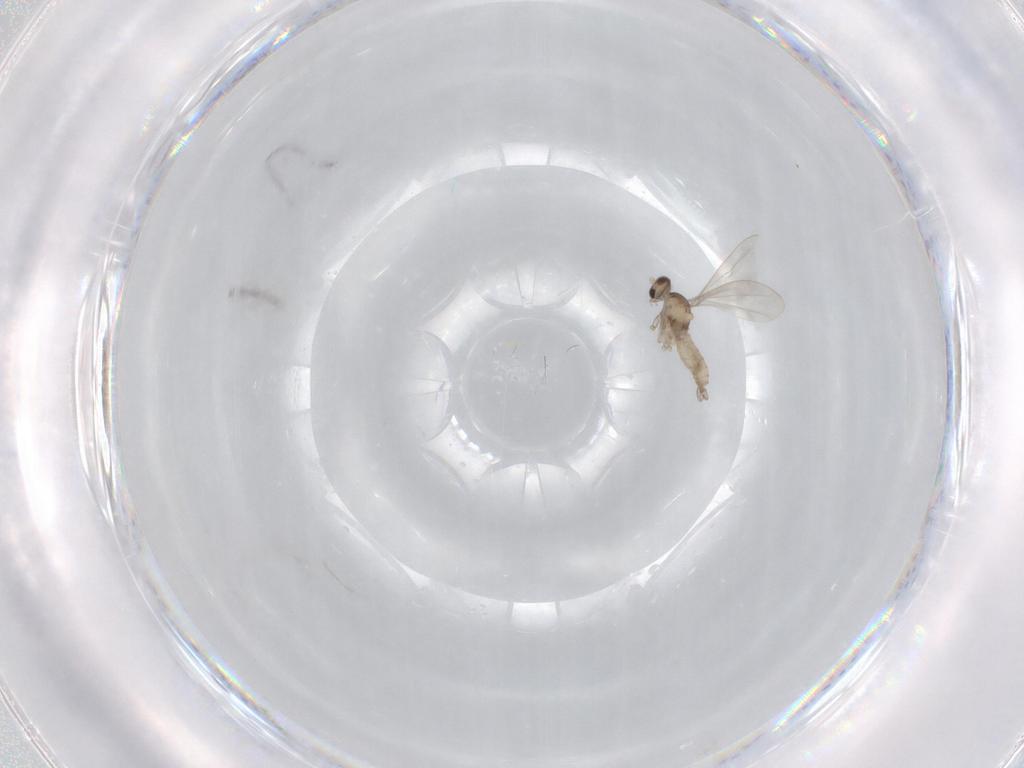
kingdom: Animalia
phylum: Arthropoda
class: Insecta
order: Diptera
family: Cecidomyiidae
